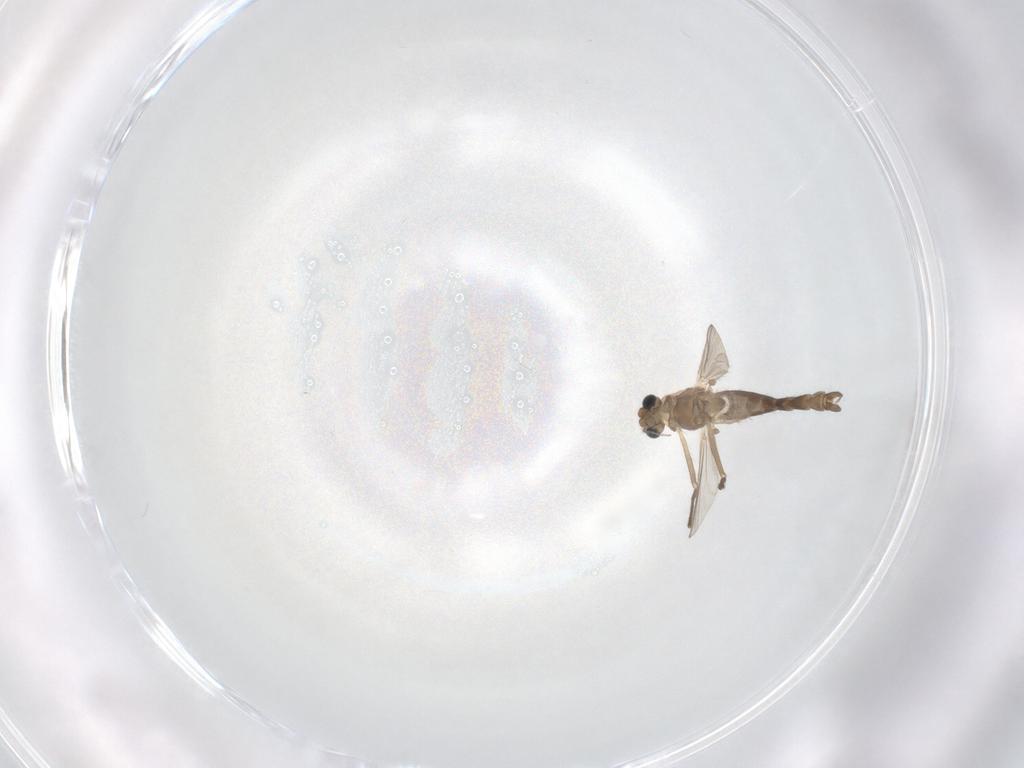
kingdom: Animalia
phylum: Arthropoda
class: Insecta
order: Diptera
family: Chironomidae
